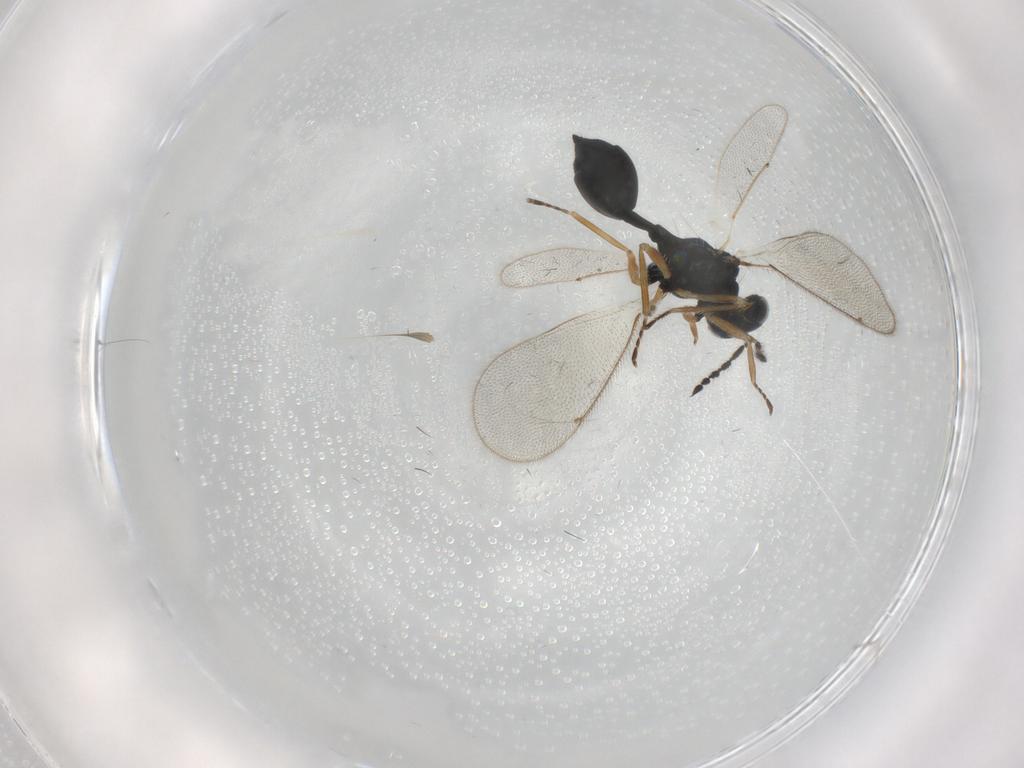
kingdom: Animalia
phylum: Arthropoda
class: Insecta
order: Hymenoptera
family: Eulophidae
